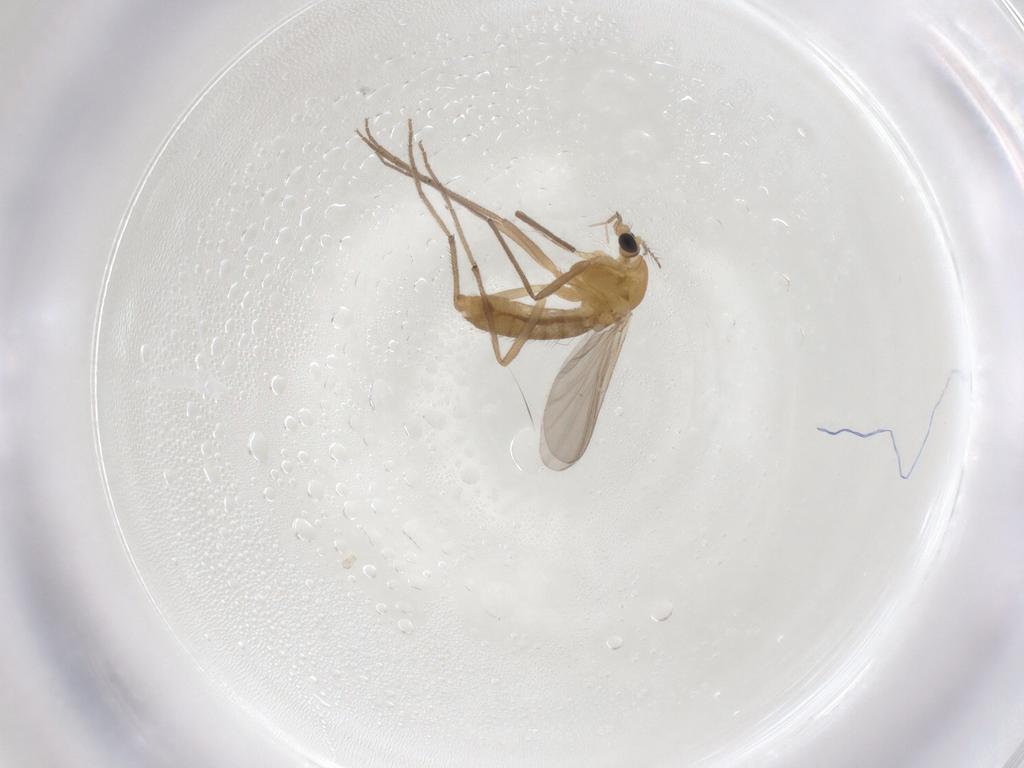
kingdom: Animalia
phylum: Arthropoda
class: Insecta
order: Diptera
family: Chironomidae
